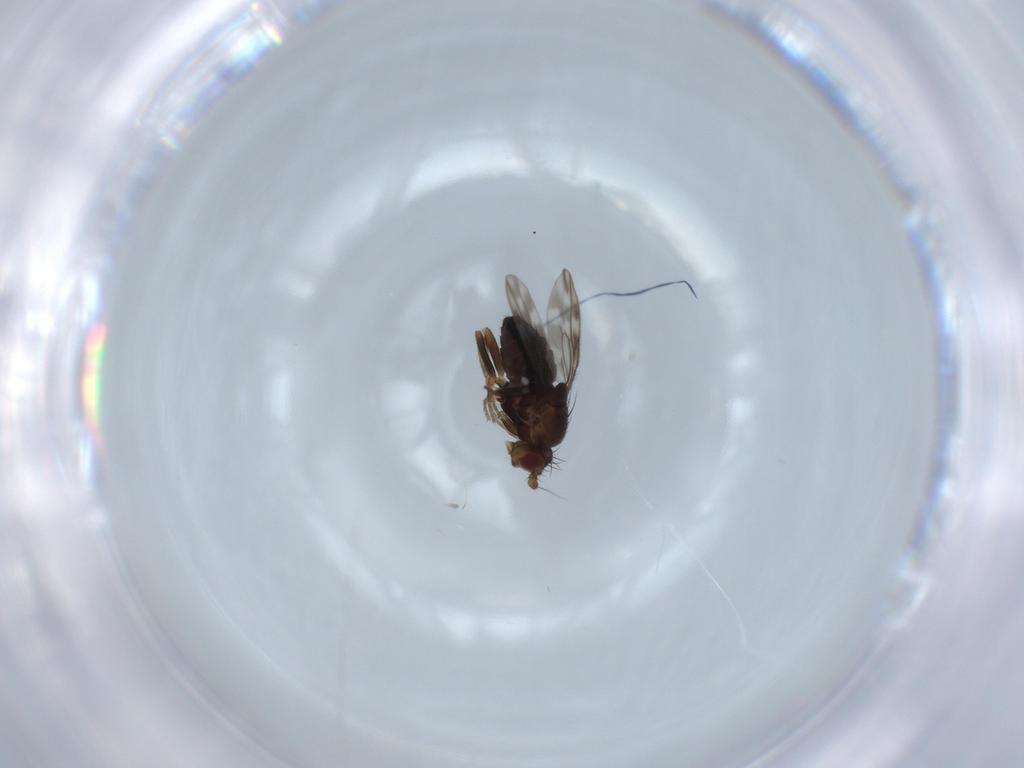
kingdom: Animalia
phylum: Arthropoda
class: Insecta
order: Diptera
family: Sphaeroceridae
